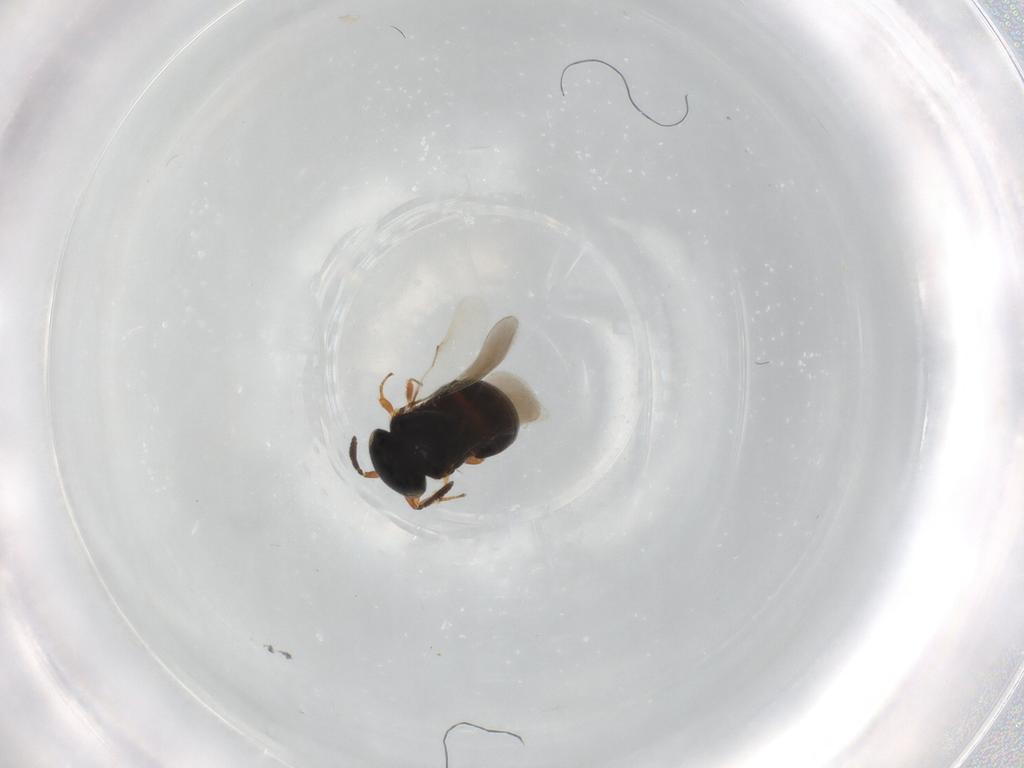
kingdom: Animalia
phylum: Arthropoda
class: Insecta
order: Hymenoptera
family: Scelionidae
